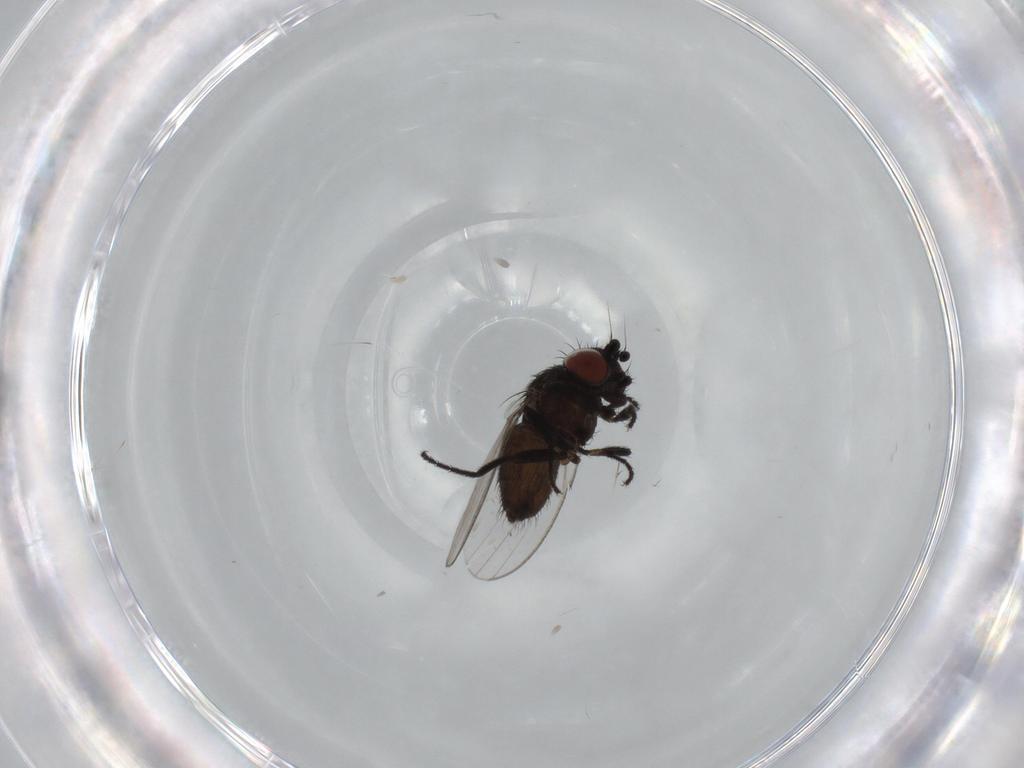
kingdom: Animalia
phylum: Arthropoda
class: Insecta
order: Diptera
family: Milichiidae
